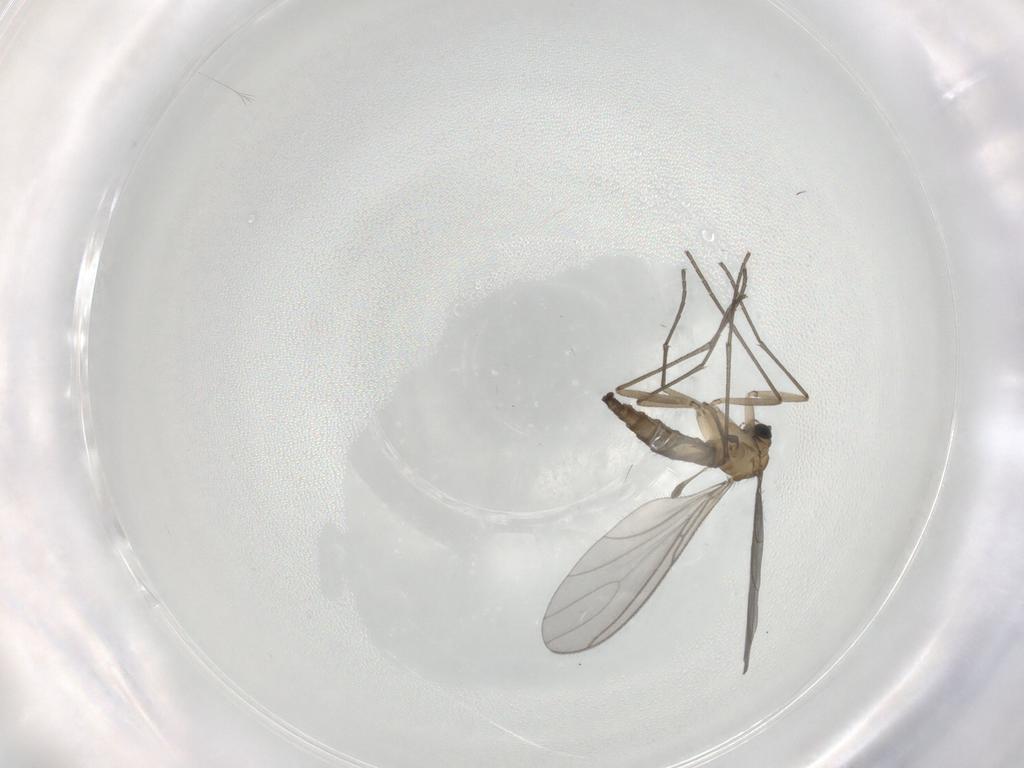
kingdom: Animalia
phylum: Arthropoda
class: Insecta
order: Diptera
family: Sciaridae
